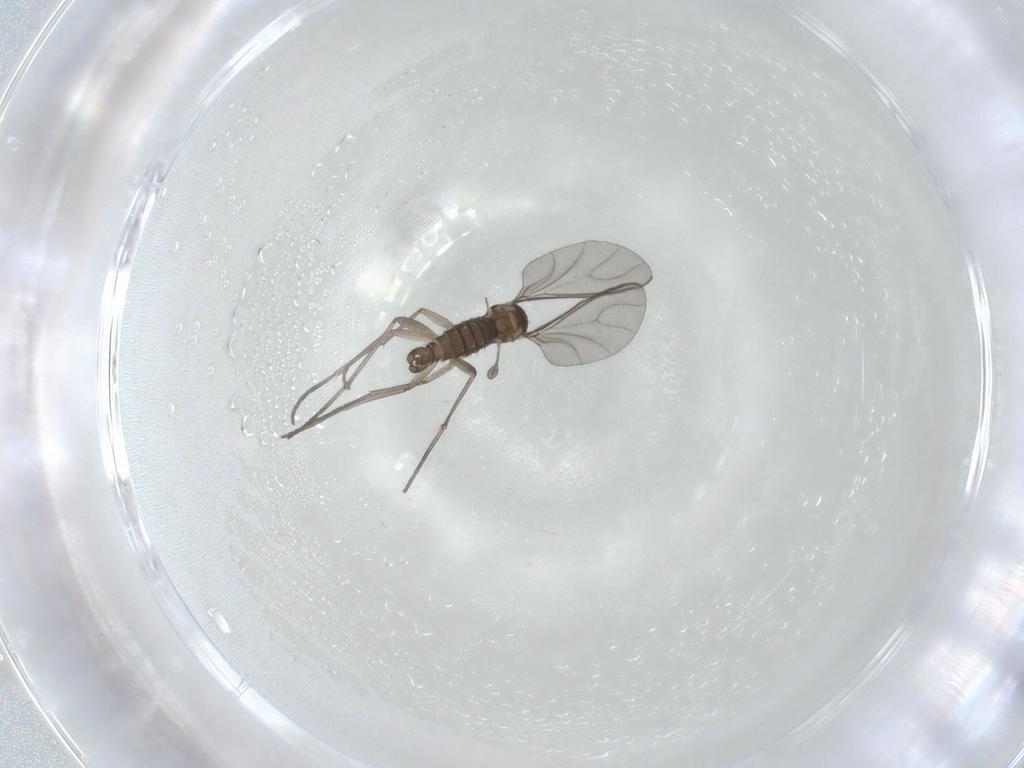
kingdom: Animalia
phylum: Arthropoda
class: Insecta
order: Diptera
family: Sciaridae
